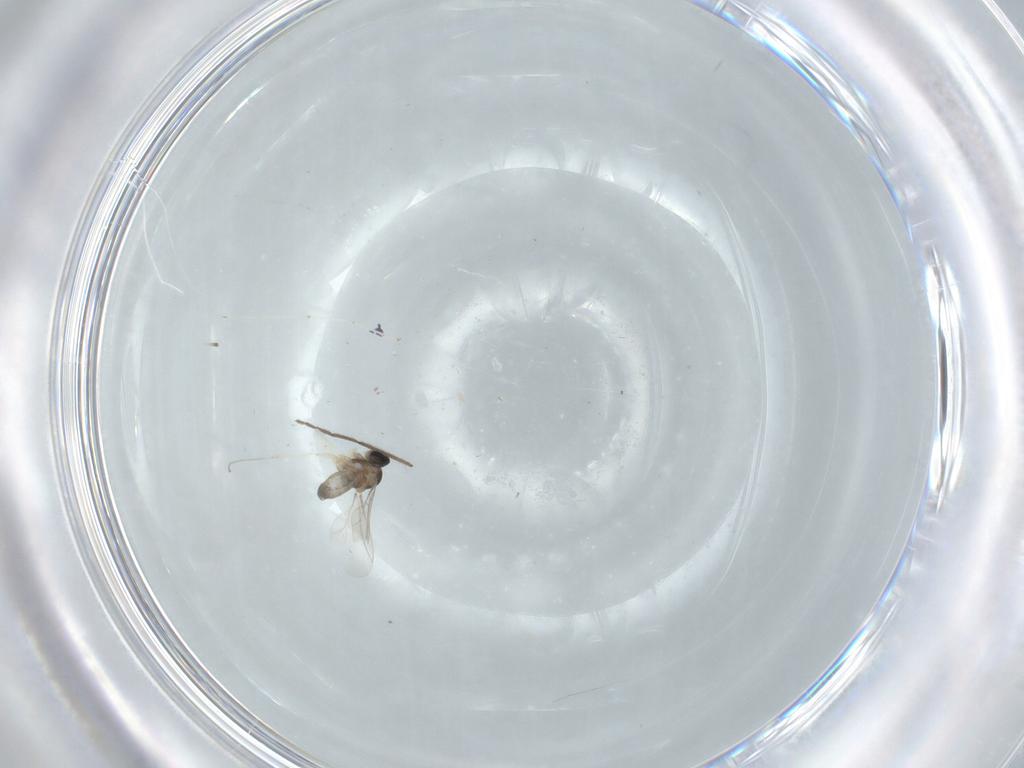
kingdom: Animalia
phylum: Arthropoda
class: Insecta
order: Diptera
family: Cecidomyiidae
